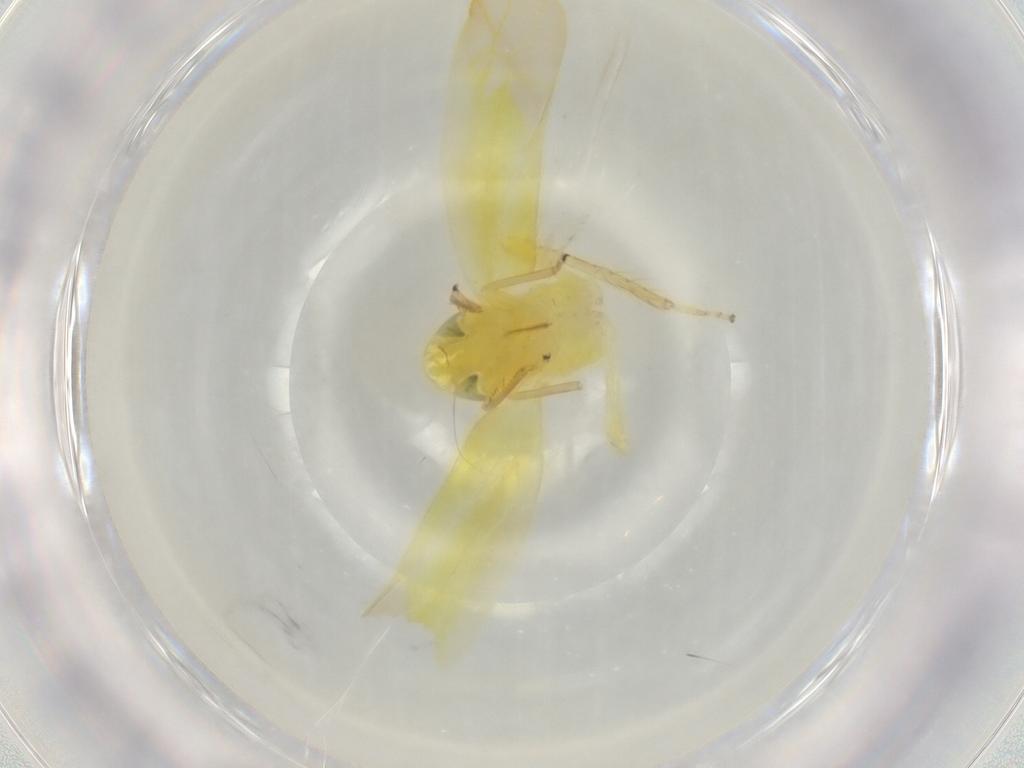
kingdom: Animalia
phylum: Arthropoda
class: Insecta
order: Hemiptera
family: Cicadellidae
